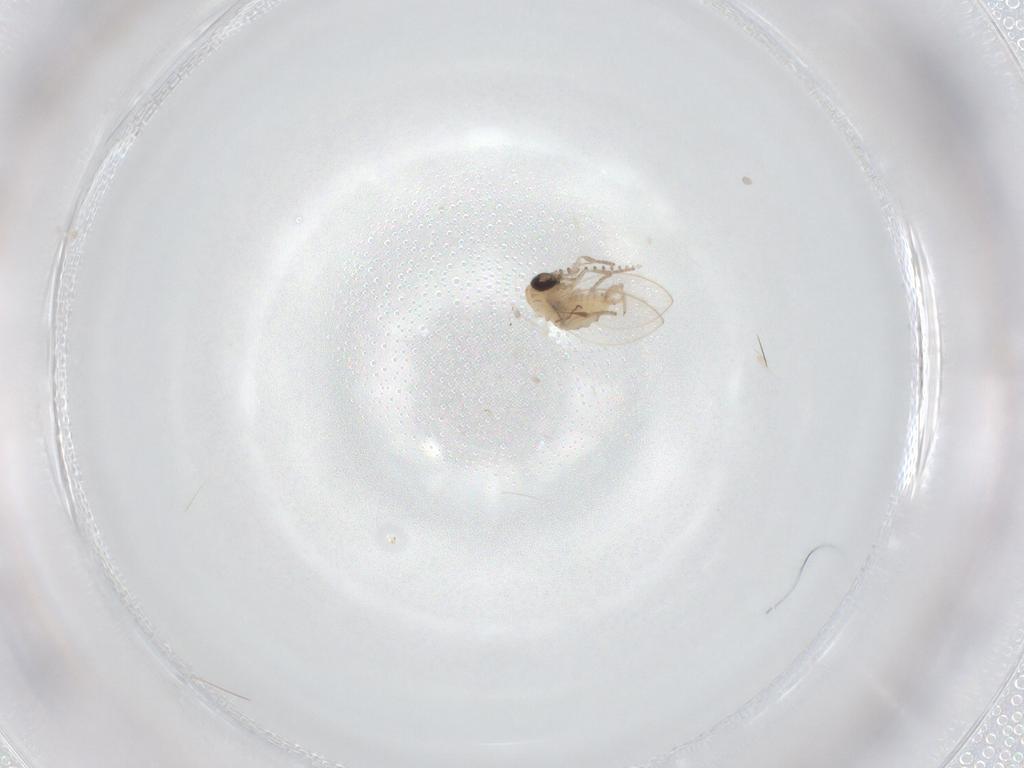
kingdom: Animalia
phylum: Arthropoda
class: Insecta
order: Diptera
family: Psychodidae
